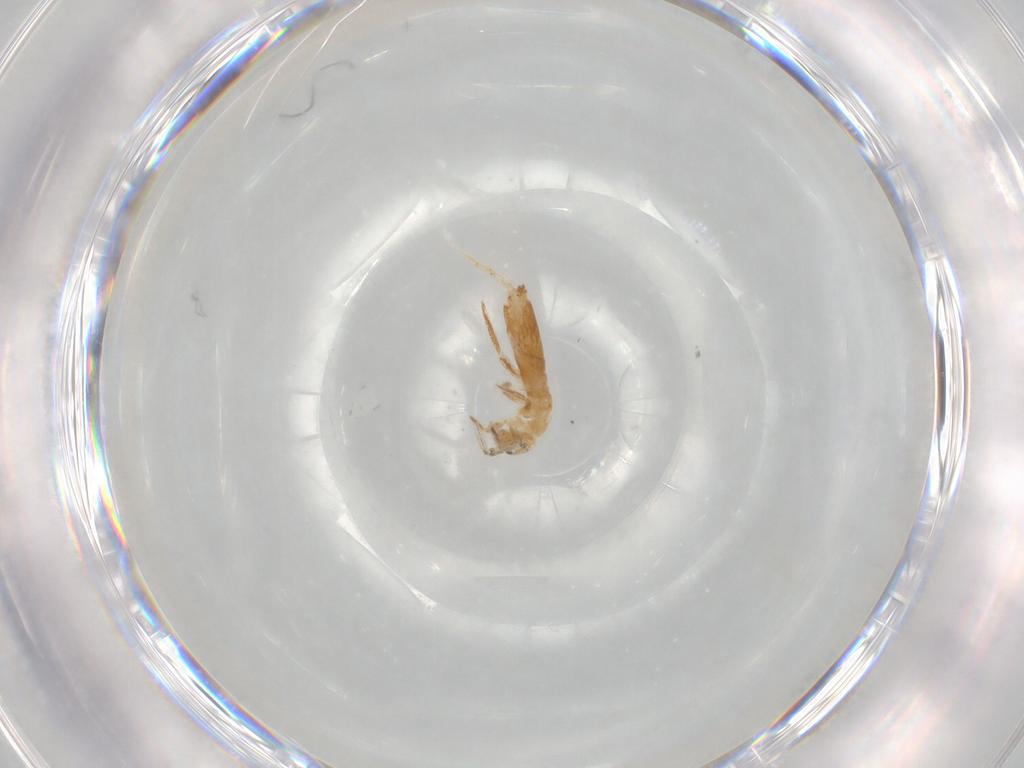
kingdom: Animalia
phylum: Arthropoda
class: Collembola
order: Entomobryomorpha
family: Entomobryidae
